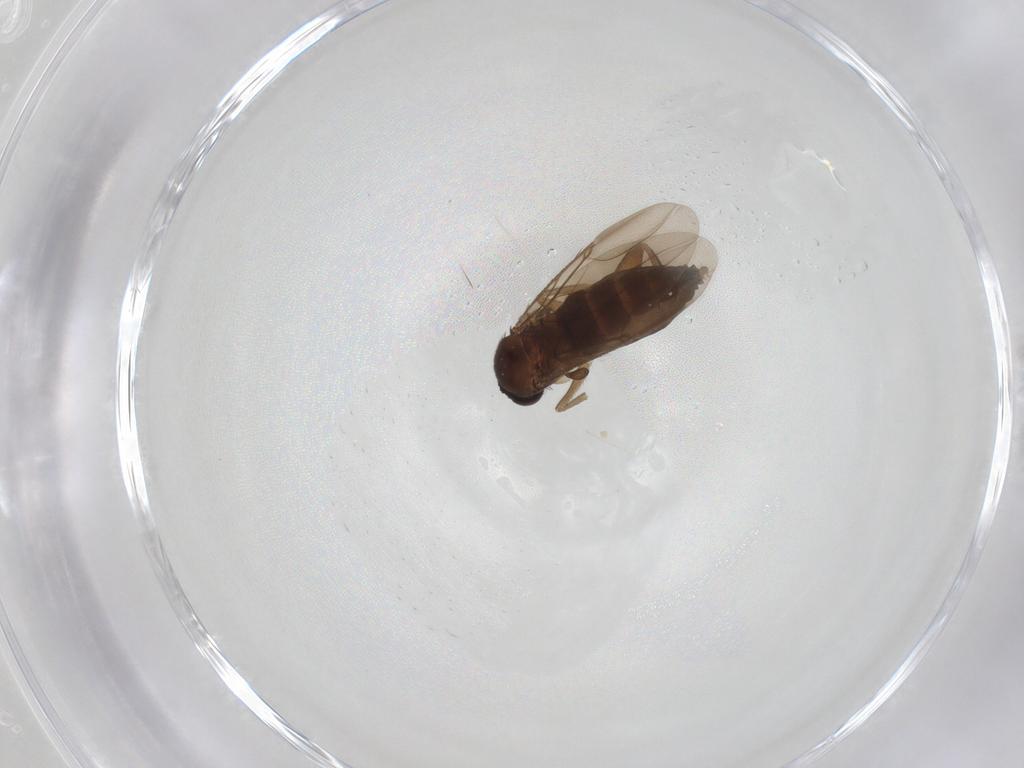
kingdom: Animalia
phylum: Arthropoda
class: Insecta
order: Diptera
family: Phoridae
